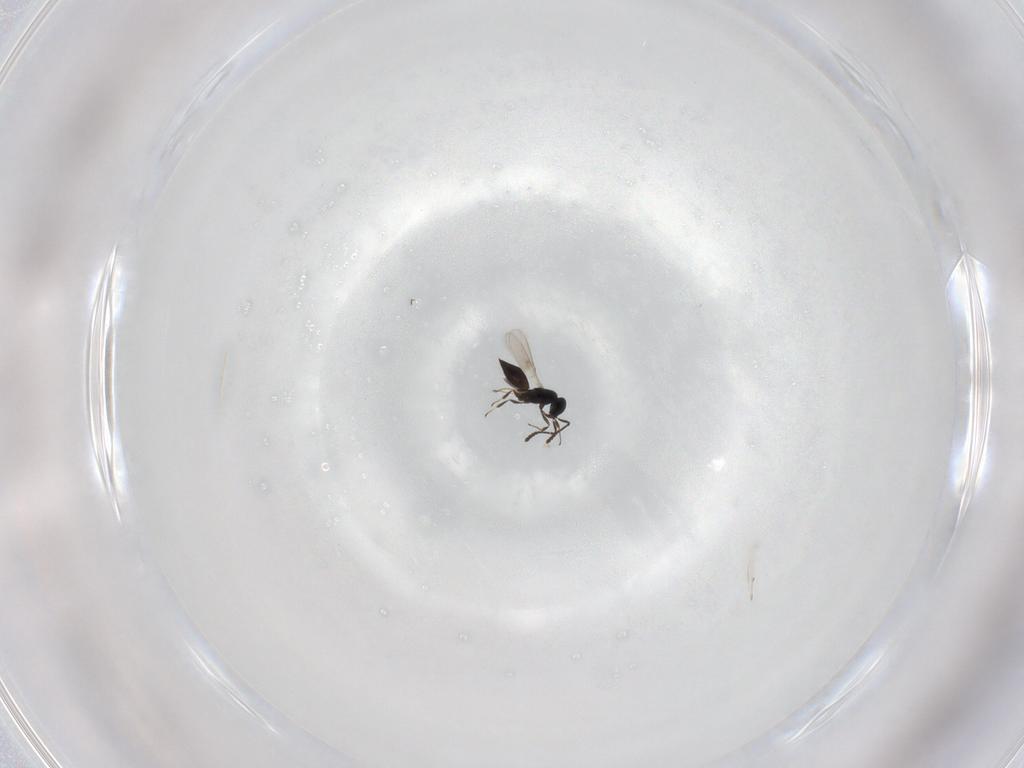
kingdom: Animalia
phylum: Arthropoda
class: Insecta
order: Hymenoptera
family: Scelionidae
